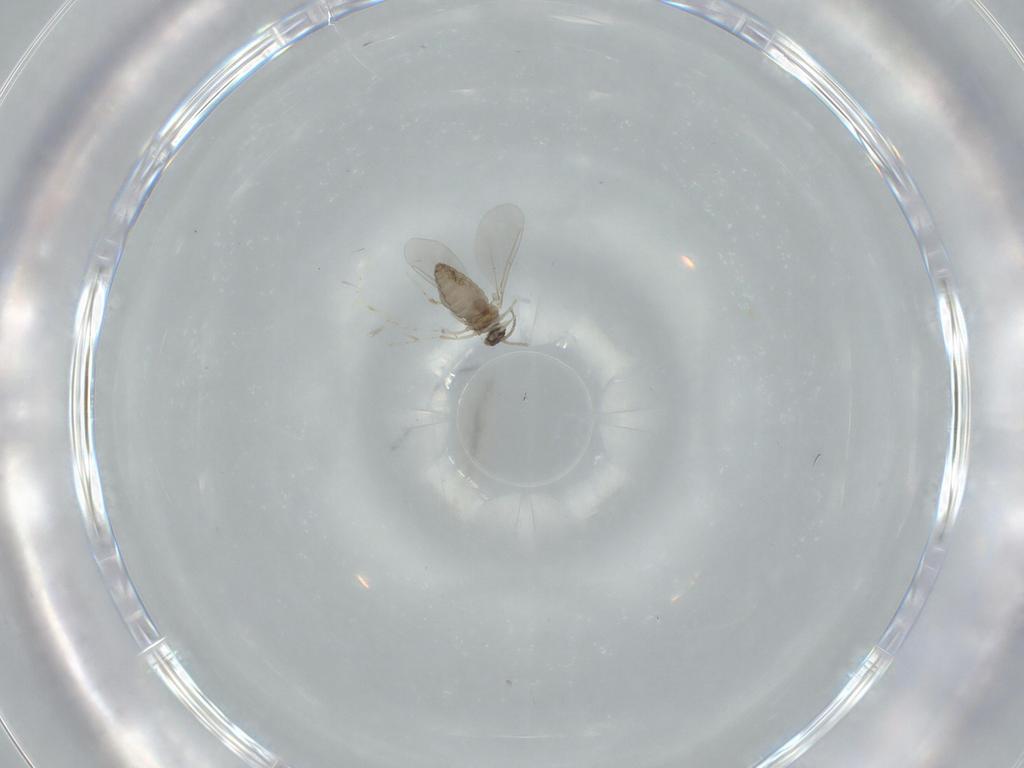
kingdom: Animalia
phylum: Arthropoda
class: Insecta
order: Diptera
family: Cecidomyiidae
